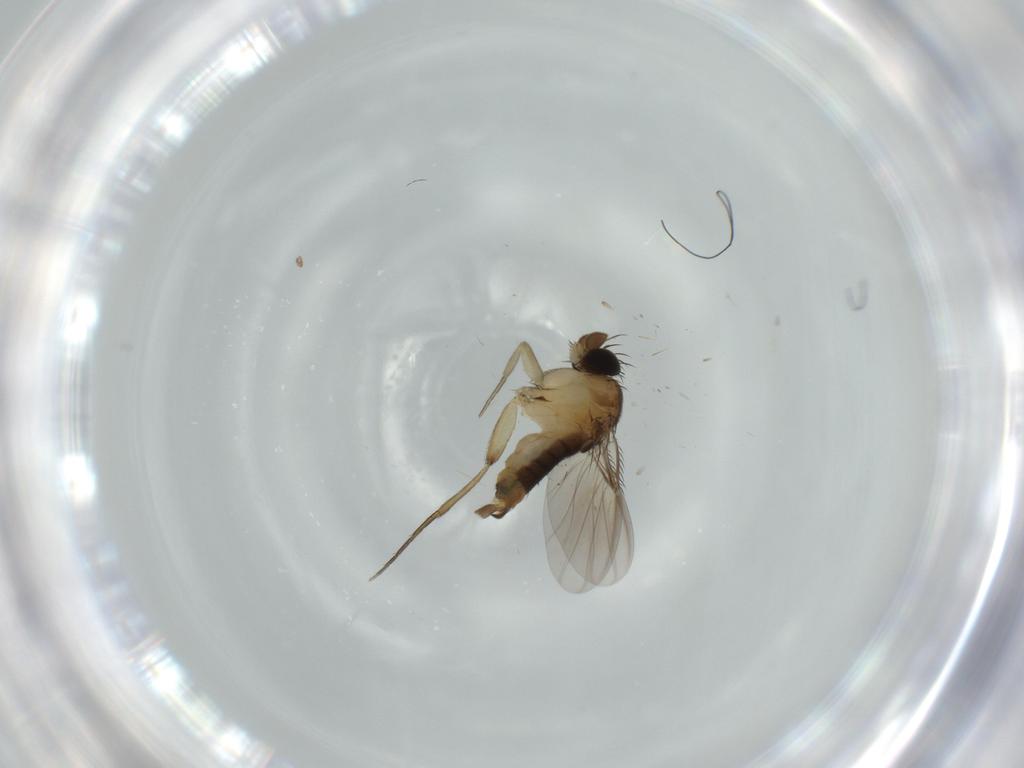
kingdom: Animalia
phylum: Arthropoda
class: Insecta
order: Diptera
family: Phoridae
